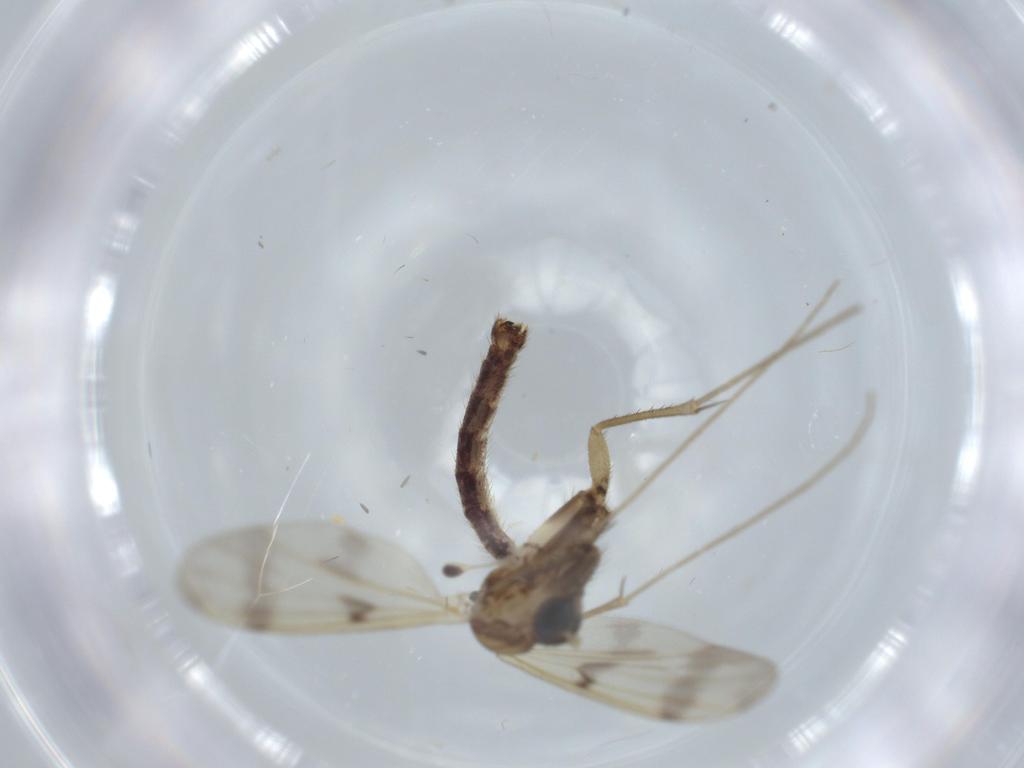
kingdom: Animalia
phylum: Arthropoda
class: Insecta
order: Diptera
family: Sciaridae
